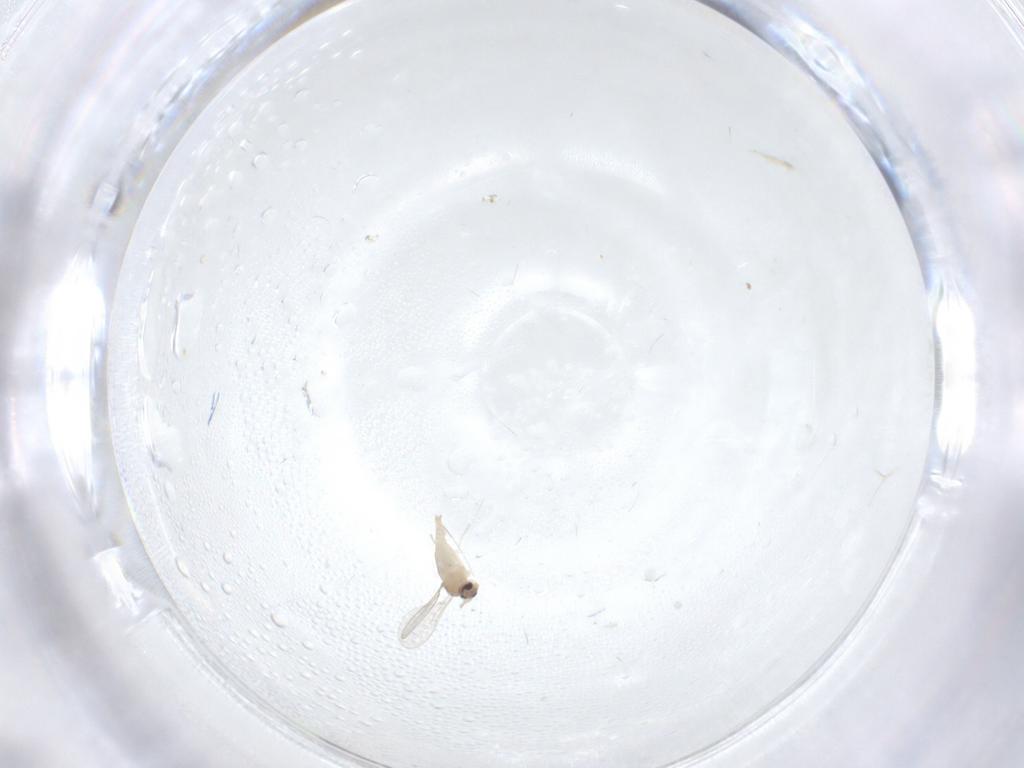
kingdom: Animalia
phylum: Arthropoda
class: Insecta
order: Diptera
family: Cecidomyiidae
